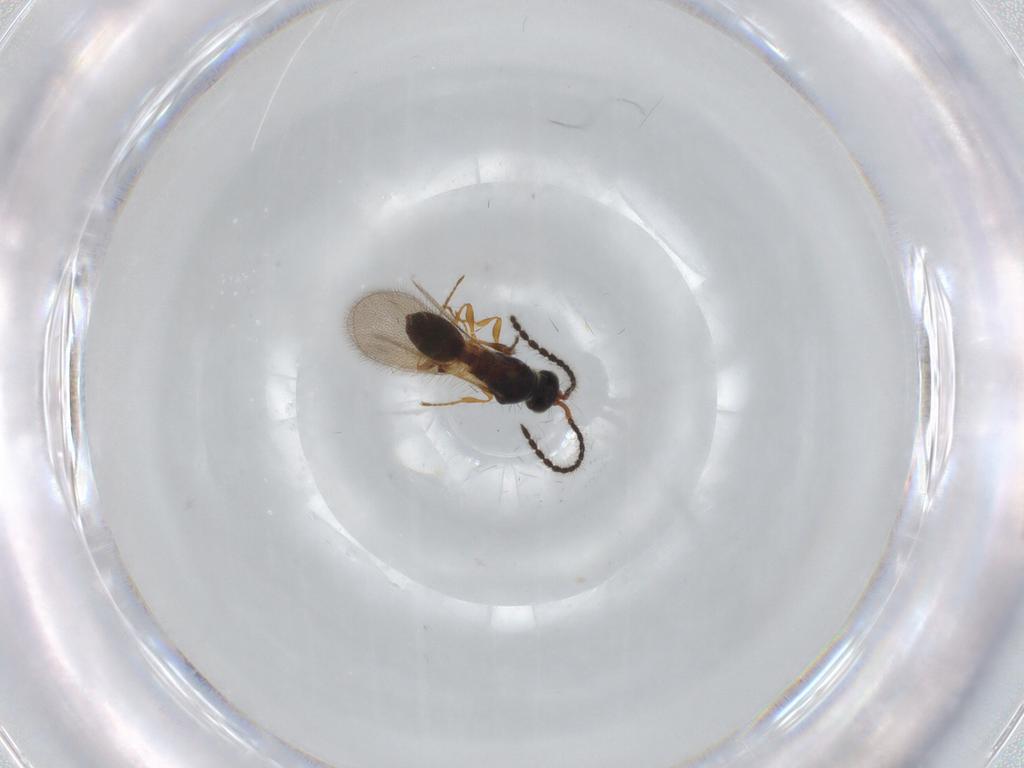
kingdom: Animalia
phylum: Arthropoda
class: Insecta
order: Hymenoptera
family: Diapriidae
